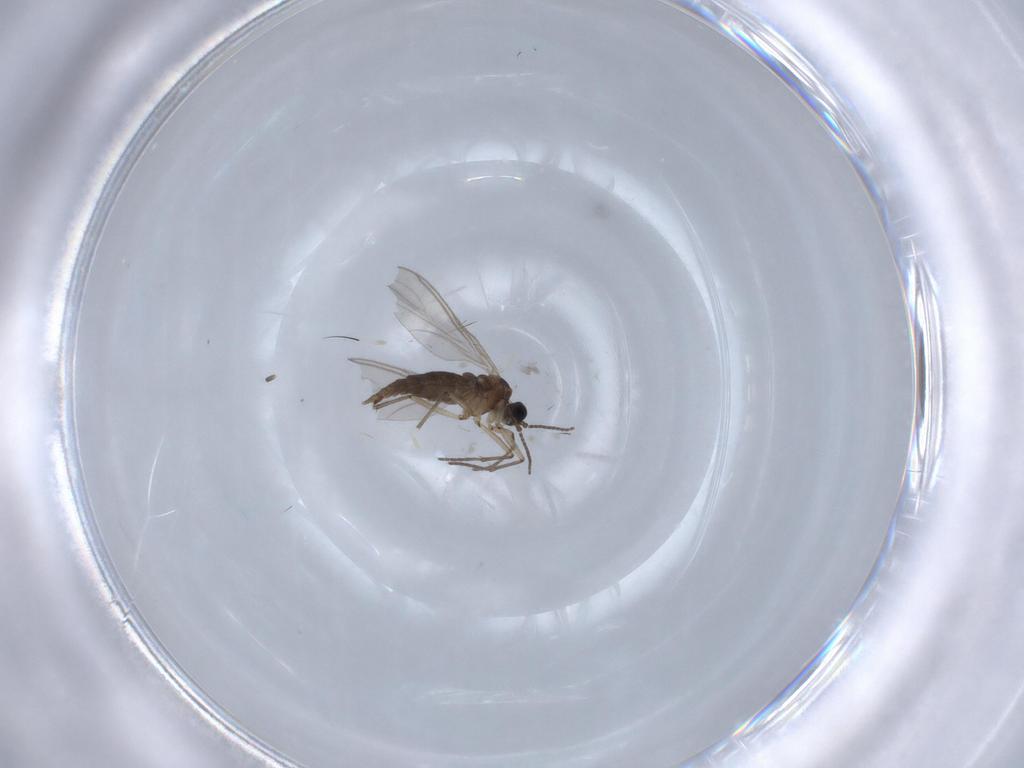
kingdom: Animalia
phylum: Arthropoda
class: Insecta
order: Diptera
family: Sciaridae
